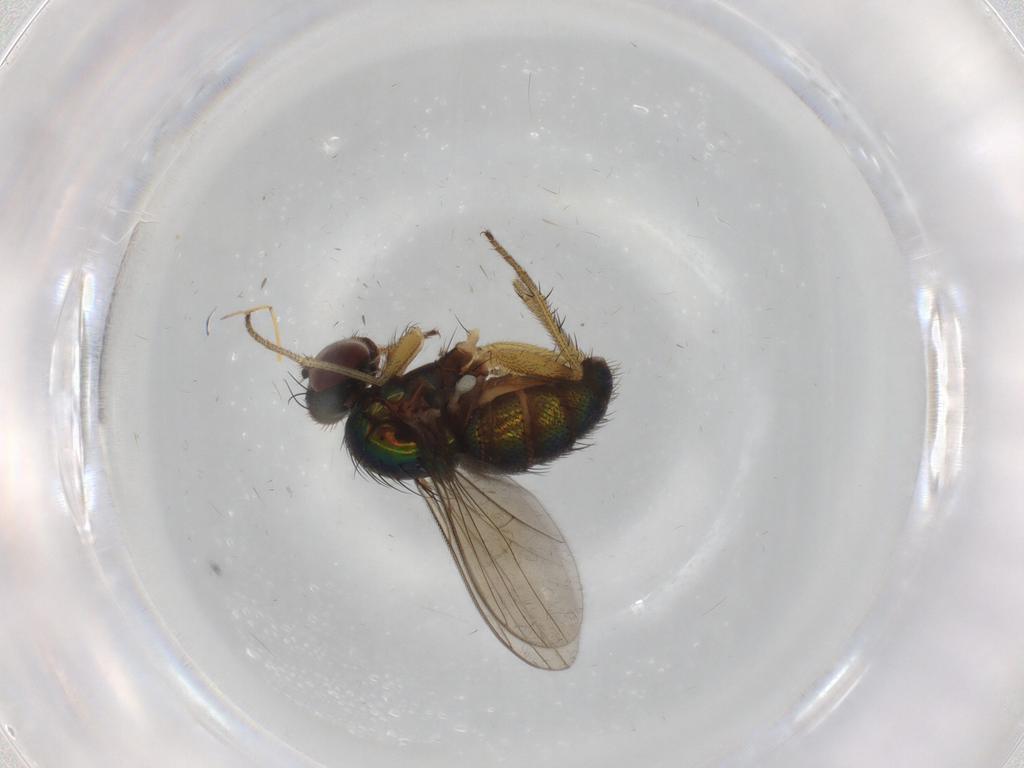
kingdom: Animalia
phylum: Arthropoda
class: Insecta
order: Diptera
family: Dolichopodidae
